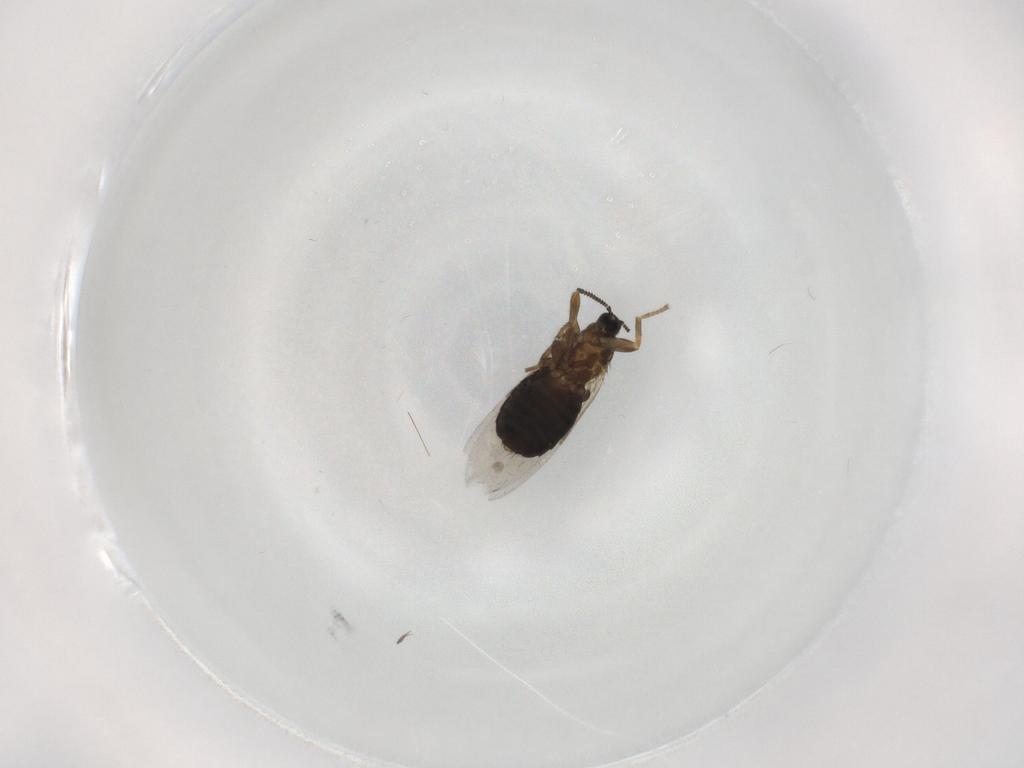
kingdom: Animalia
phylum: Arthropoda
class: Insecta
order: Diptera
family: Scatopsidae
